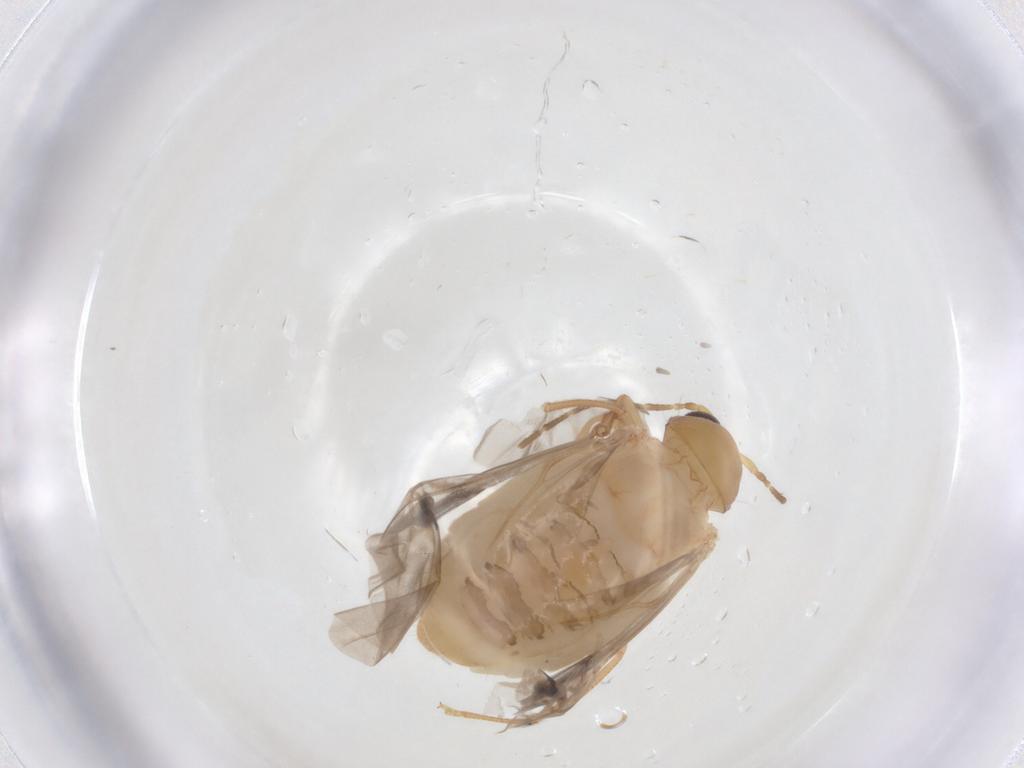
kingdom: Animalia
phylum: Arthropoda
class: Insecta
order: Coleoptera
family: Chrysomelidae
